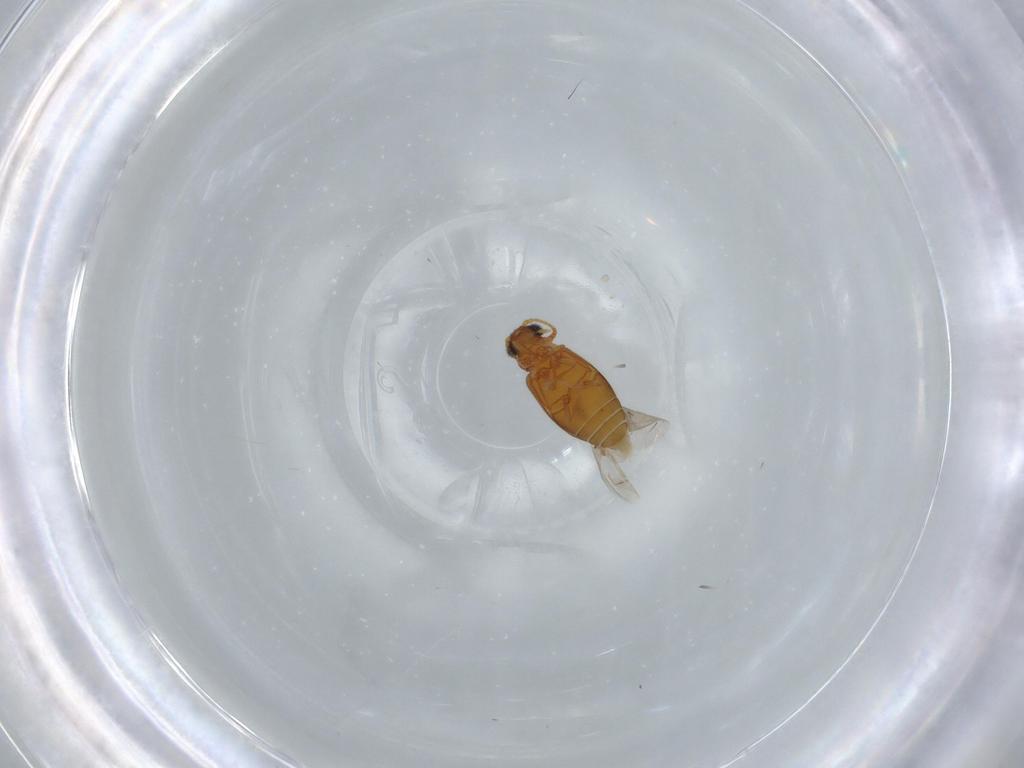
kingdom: Animalia
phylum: Arthropoda
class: Insecta
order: Coleoptera
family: Aderidae
